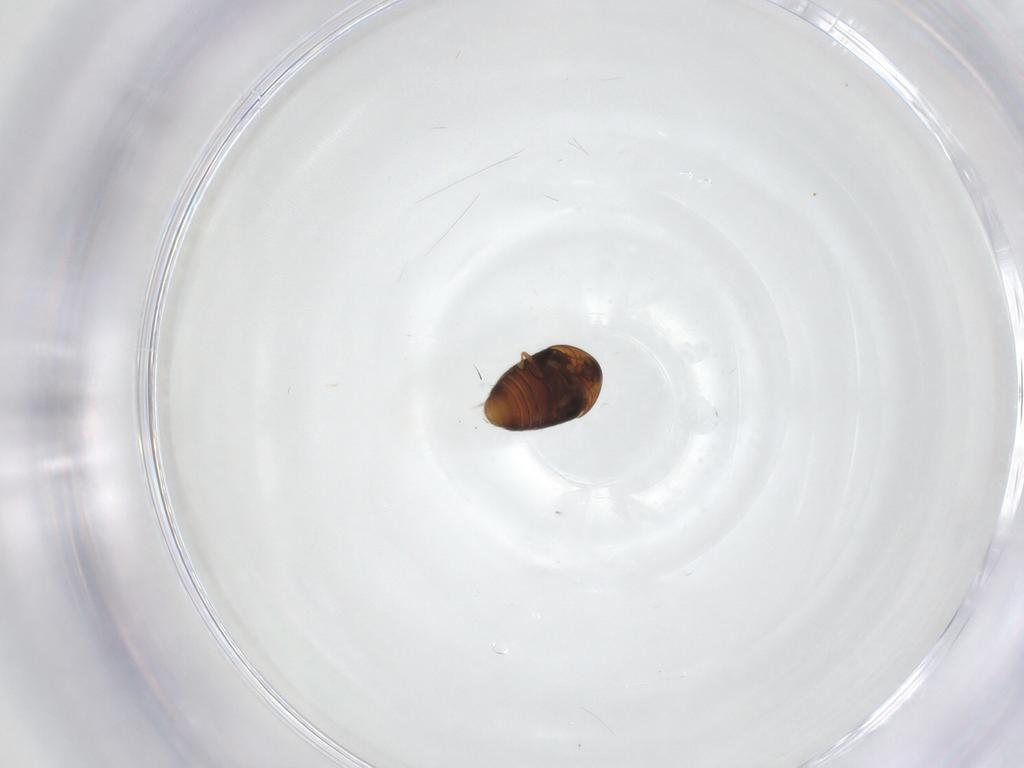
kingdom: Animalia
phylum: Arthropoda
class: Insecta
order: Coleoptera
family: Corylophidae
